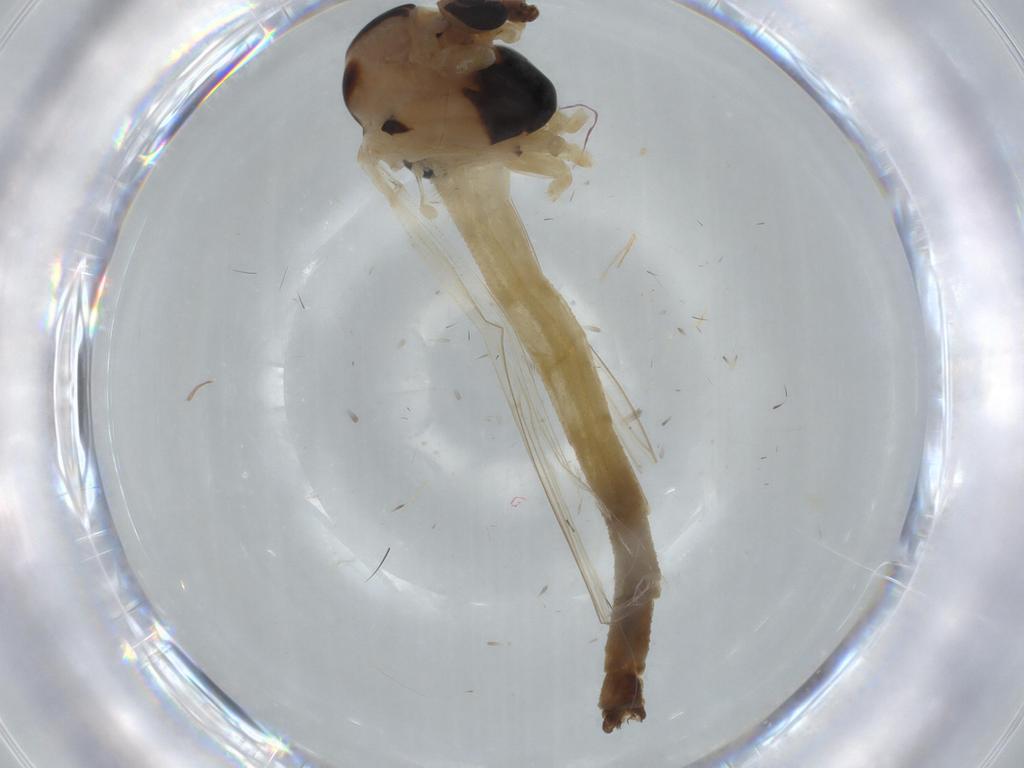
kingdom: Animalia
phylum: Arthropoda
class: Insecta
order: Diptera
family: Chironomidae
